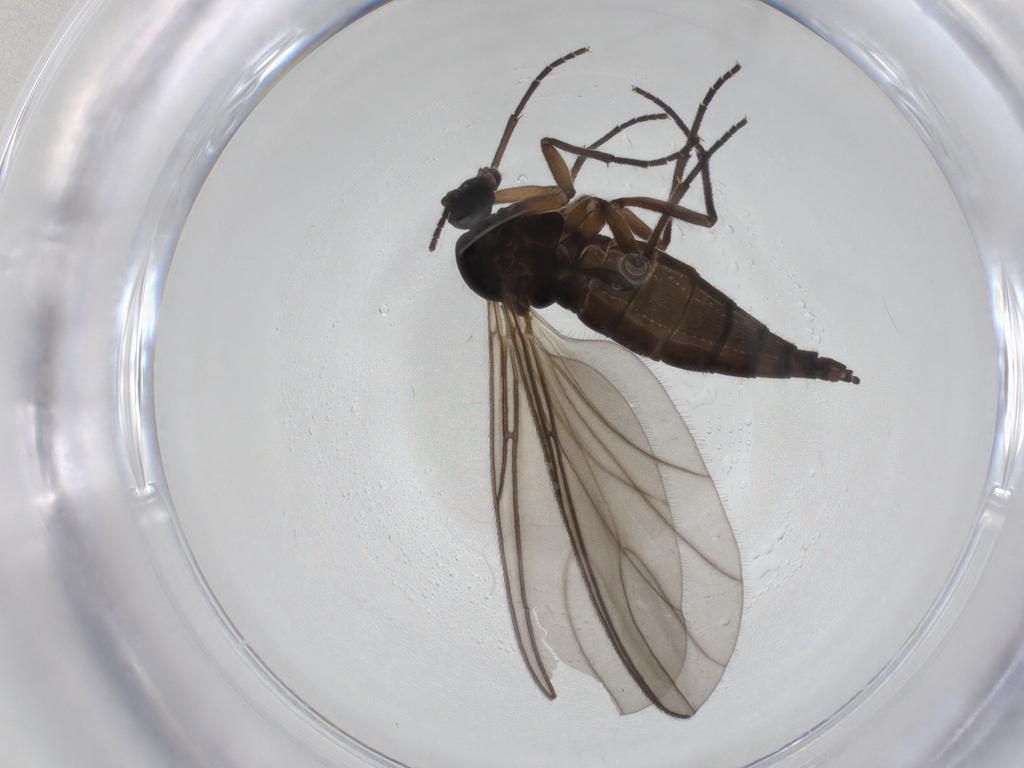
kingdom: Animalia
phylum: Arthropoda
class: Insecta
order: Diptera
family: Sciaridae
